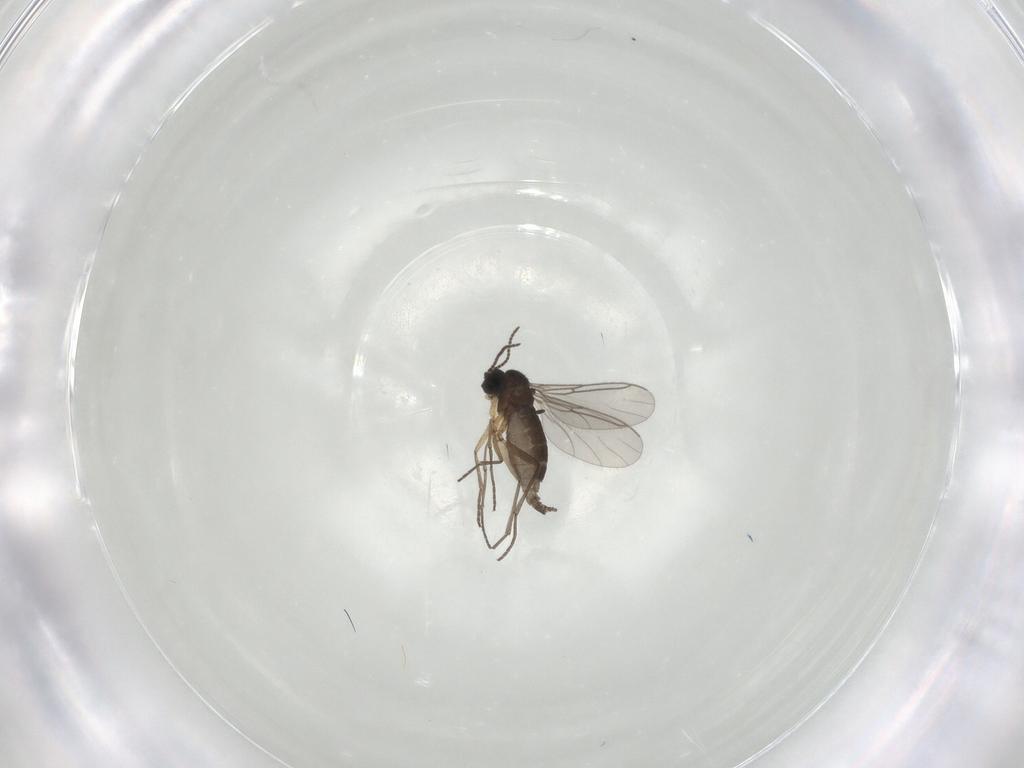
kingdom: Animalia
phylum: Arthropoda
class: Insecta
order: Diptera
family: Sciaridae
